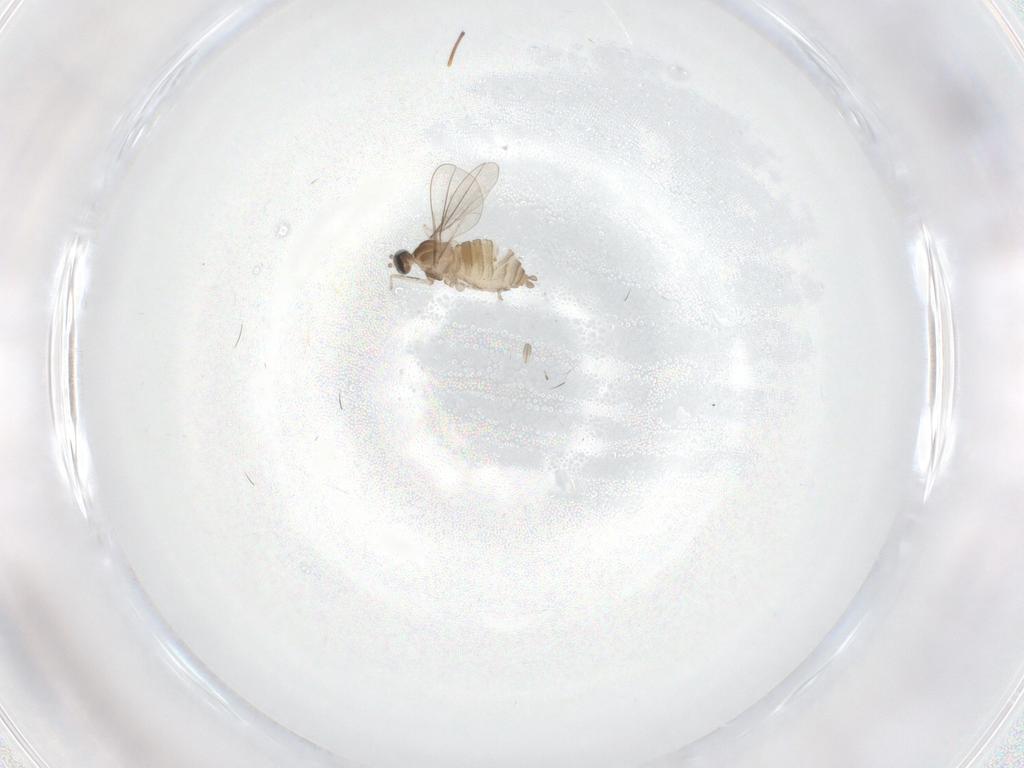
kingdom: Animalia
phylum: Arthropoda
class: Insecta
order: Diptera
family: Cecidomyiidae
